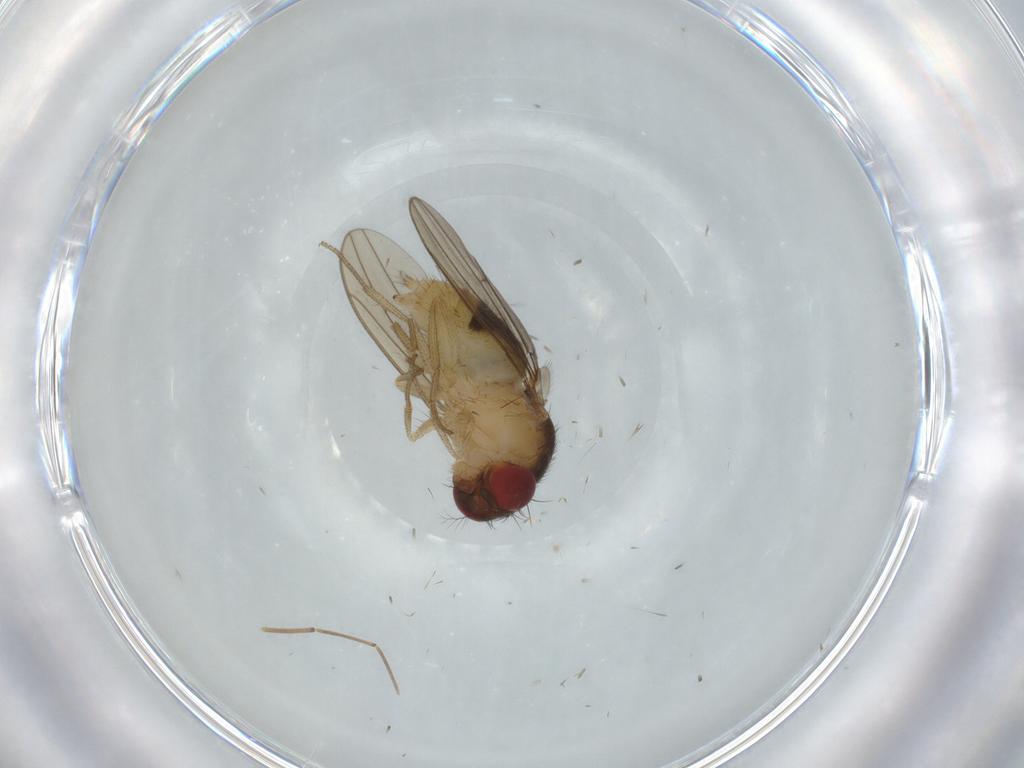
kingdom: Animalia
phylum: Arthropoda
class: Insecta
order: Diptera
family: Drosophilidae
